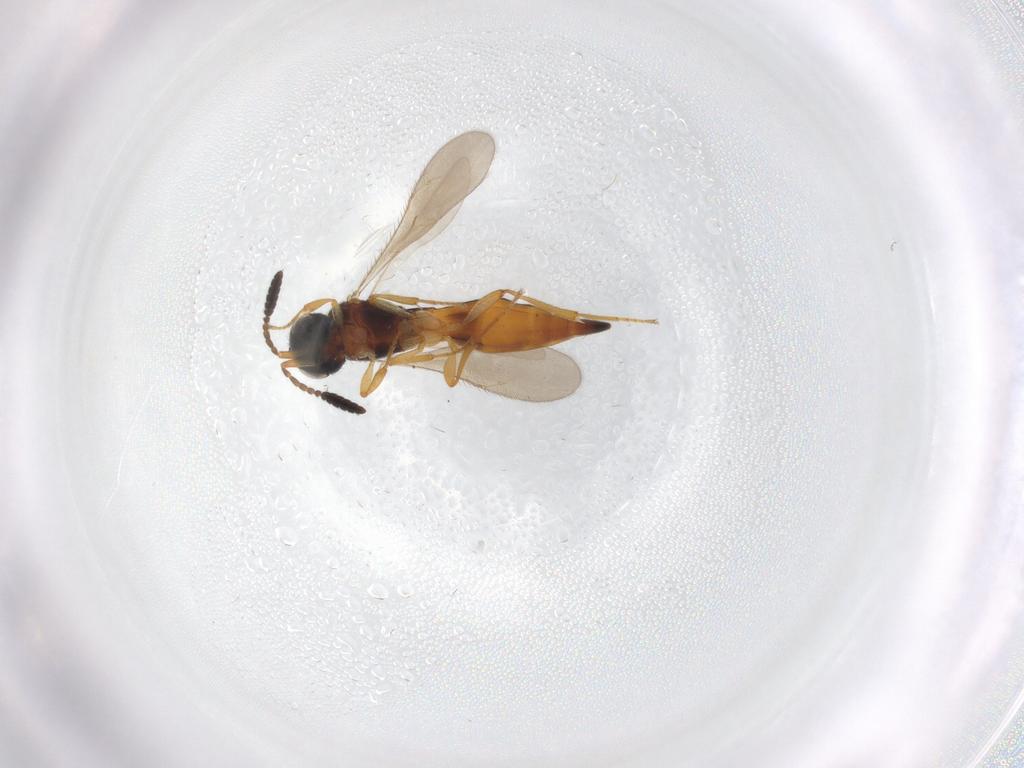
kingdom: Animalia
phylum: Arthropoda
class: Insecta
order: Hymenoptera
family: Scelionidae
